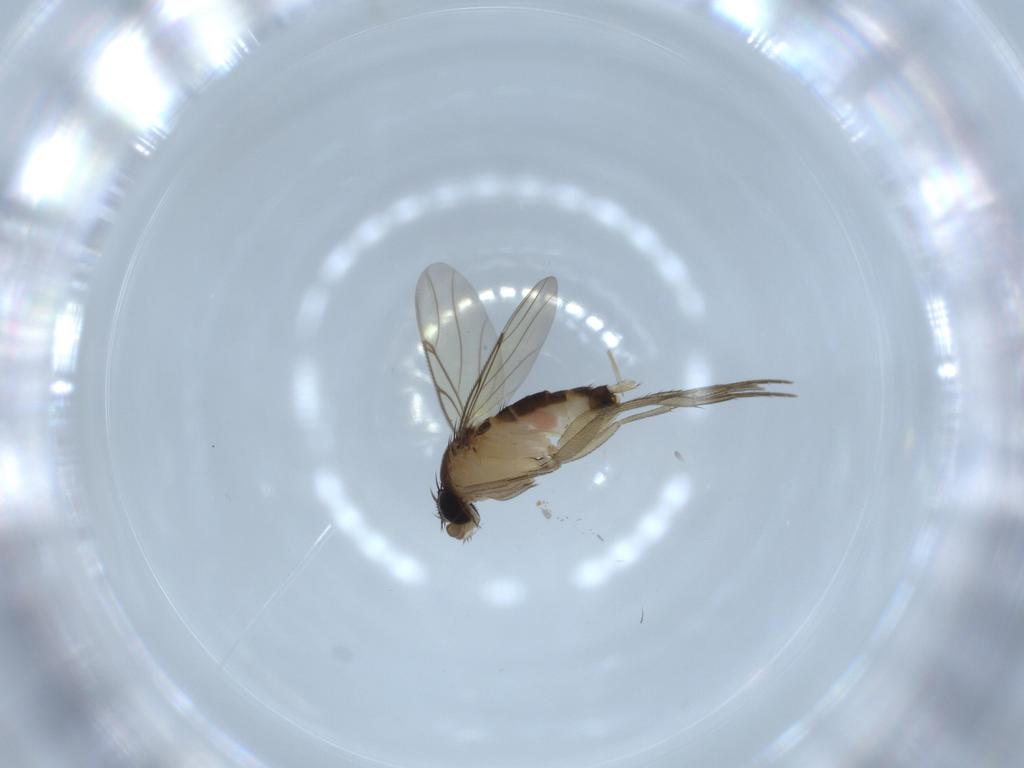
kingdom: Animalia
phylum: Arthropoda
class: Insecta
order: Diptera
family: Phoridae
